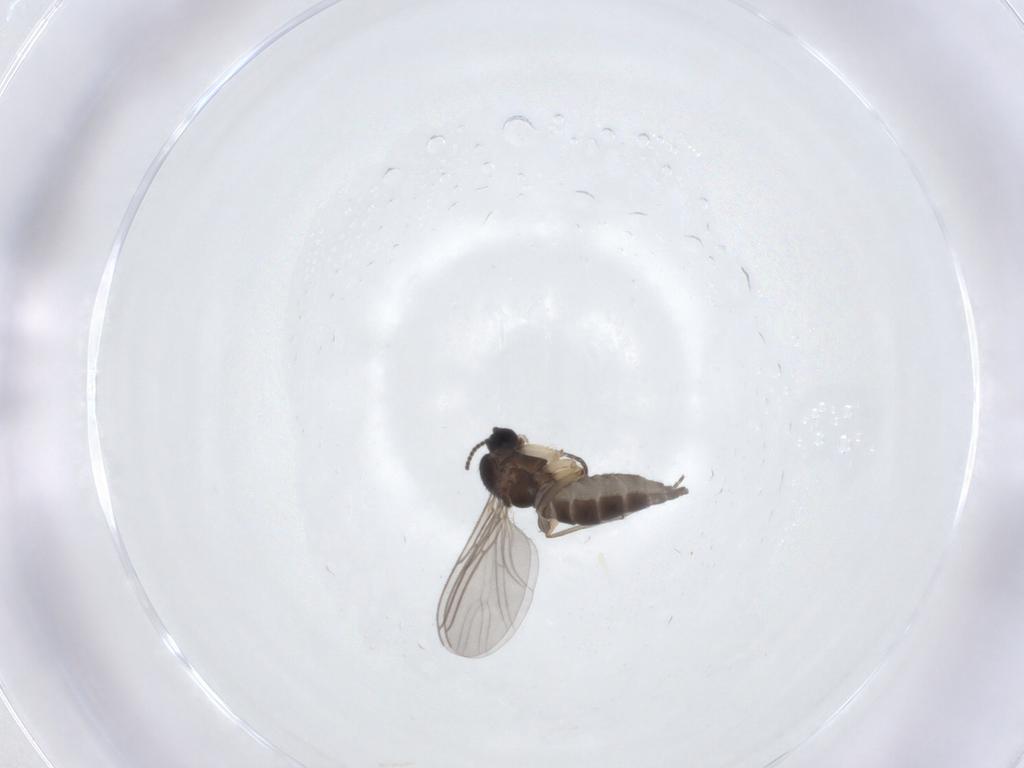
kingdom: Animalia
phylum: Arthropoda
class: Insecta
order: Diptera
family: Sciaridae
